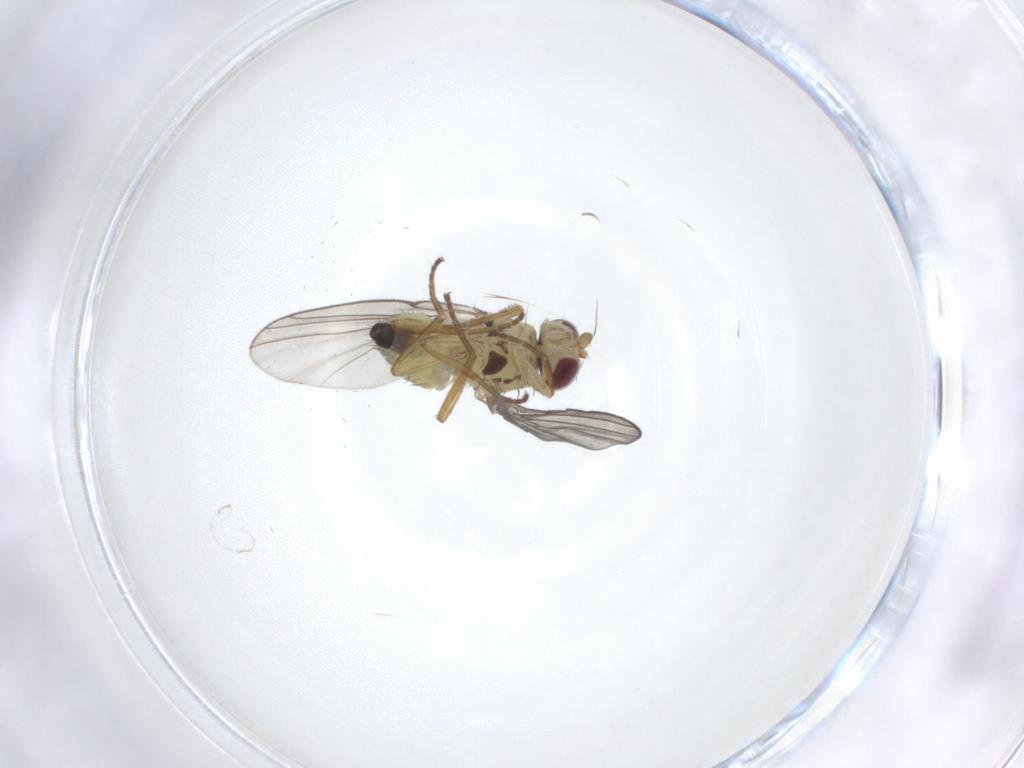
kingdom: Animalia
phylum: Arthropoda
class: Insecta
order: Diptera
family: Agromyzidae
